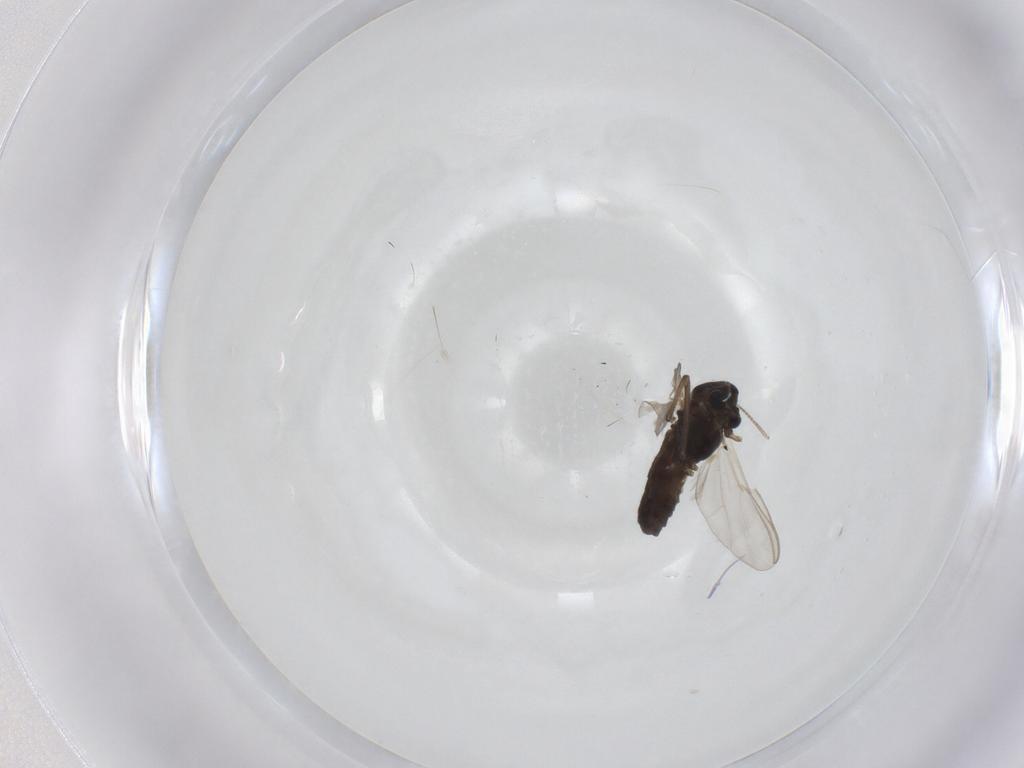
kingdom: Animalia
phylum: Arthropoda
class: Insecta
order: Diptera
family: Chironomidae
